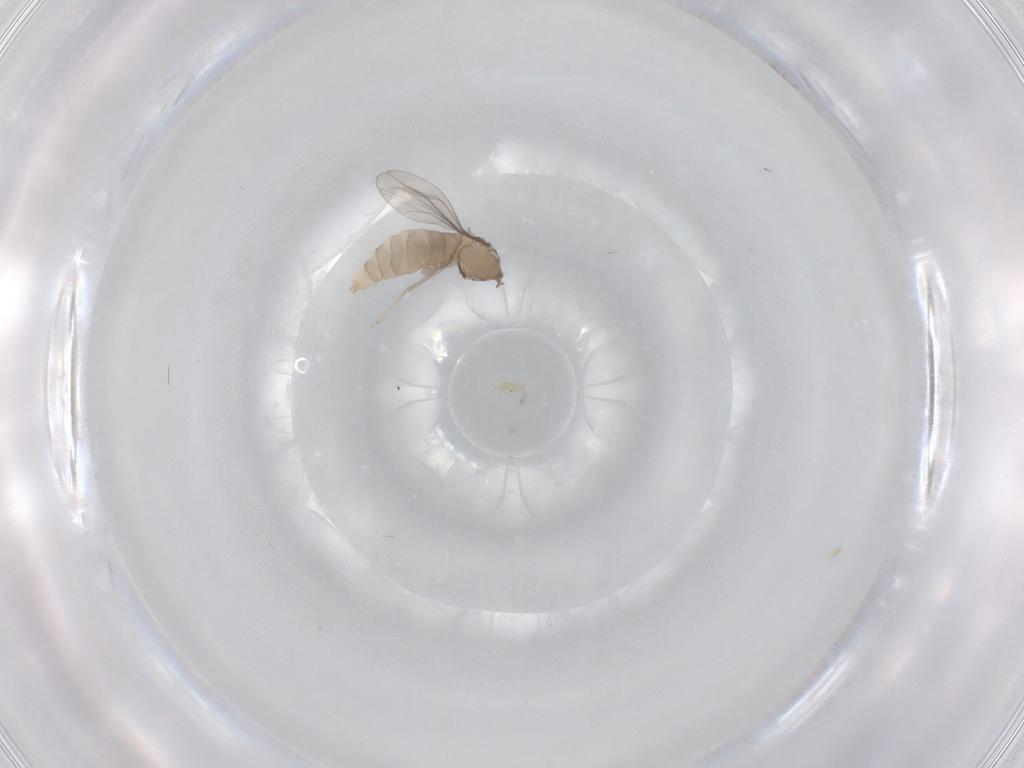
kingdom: Animalia
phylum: Arthropoda
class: Insecta
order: Diptera
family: Cecidomyiidae
